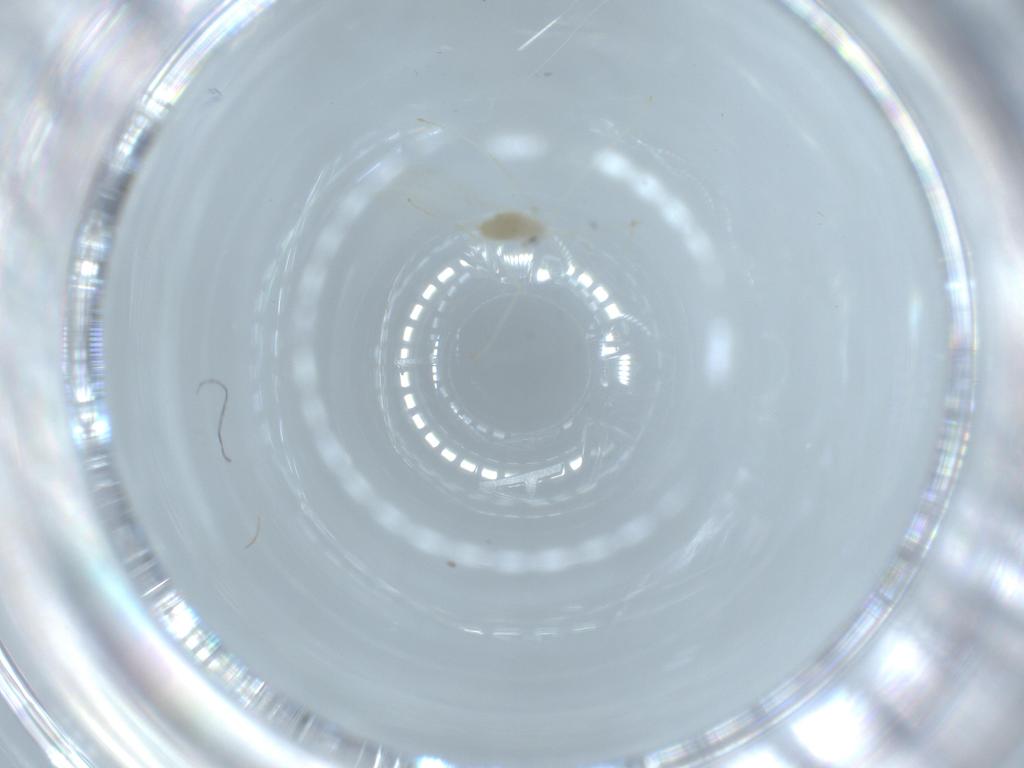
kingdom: Animalia
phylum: Arthropoda
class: Insecta
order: Diptera
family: Cecidomyiidae
